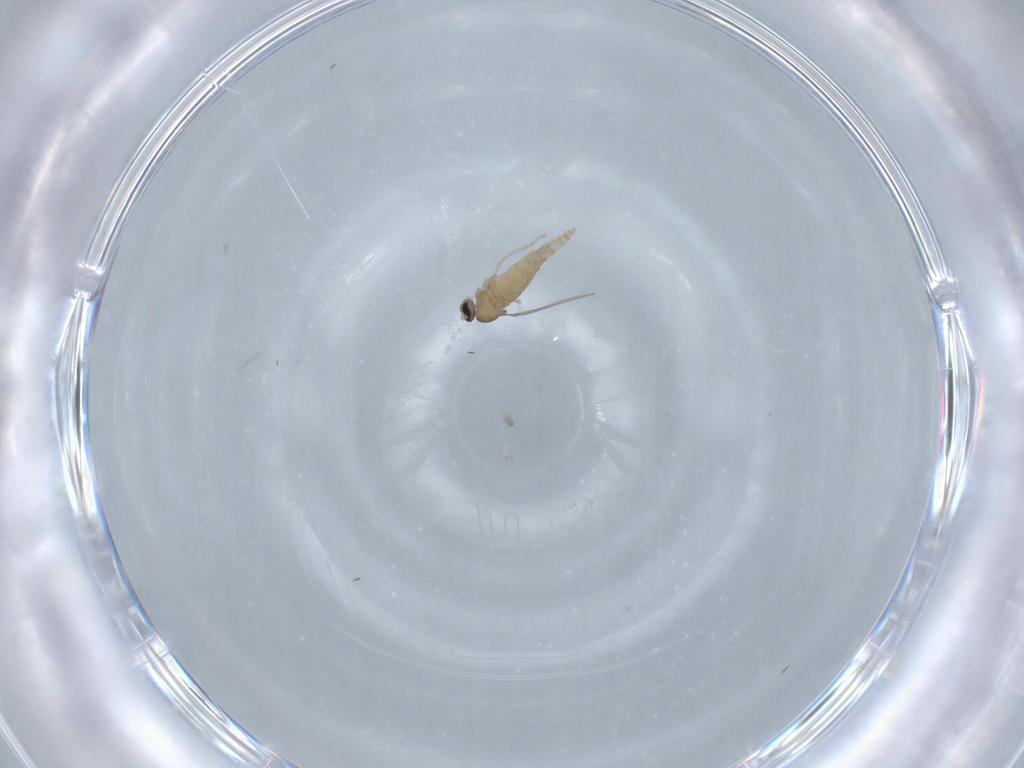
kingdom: Animalia
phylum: Arthropoda
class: Insecta
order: Diptera
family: Cecidomyiidae
